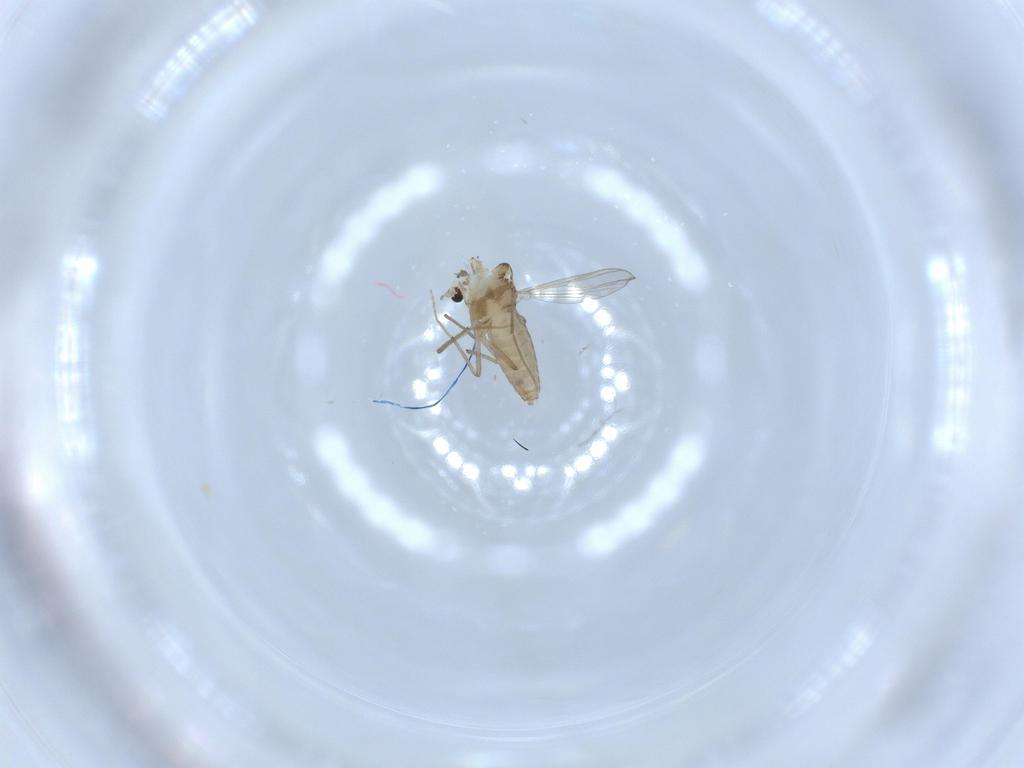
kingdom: Animalia
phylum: Arthropoda
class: Insecta
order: Diptera
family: Chironomidae
